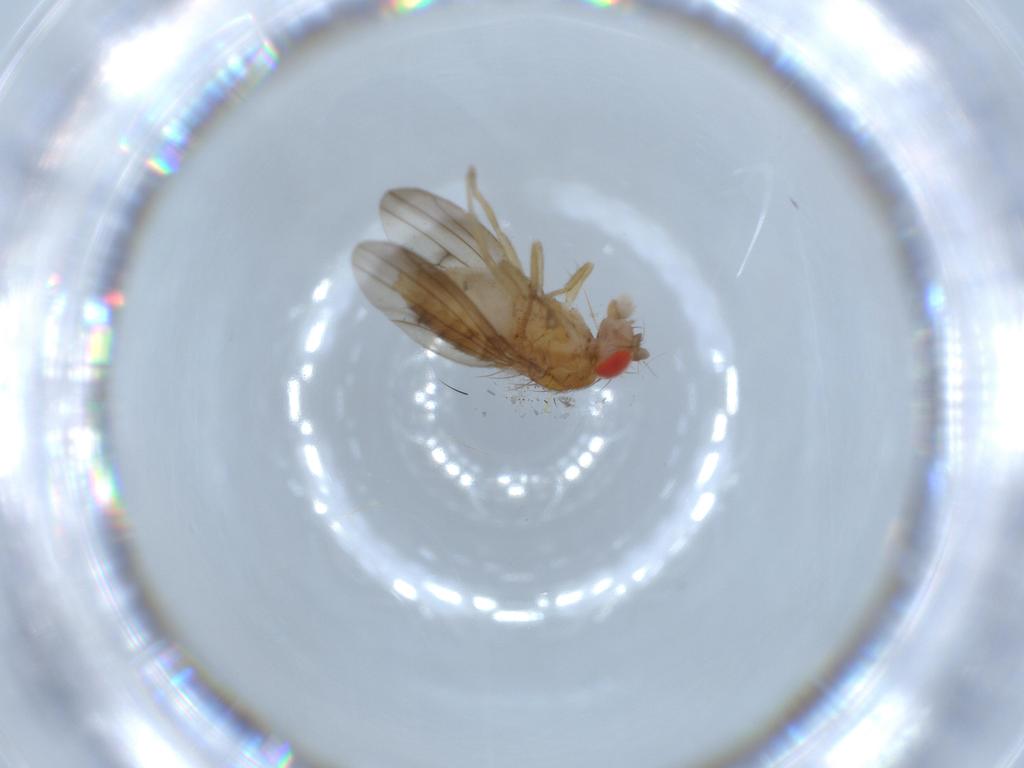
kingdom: Animalia
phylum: Arthropoda
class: Insecta
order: Diptera
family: Drosophilidae
